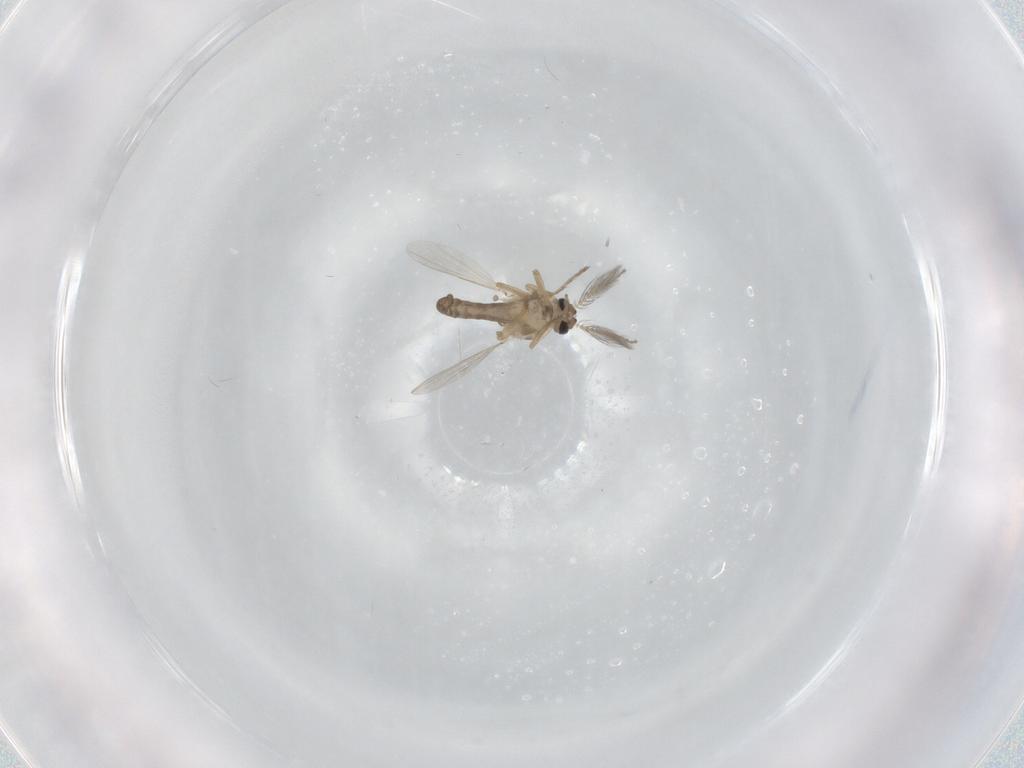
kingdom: Animalia
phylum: Arthropoda
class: Insecta
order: Diptera
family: Ceratopogonidae
